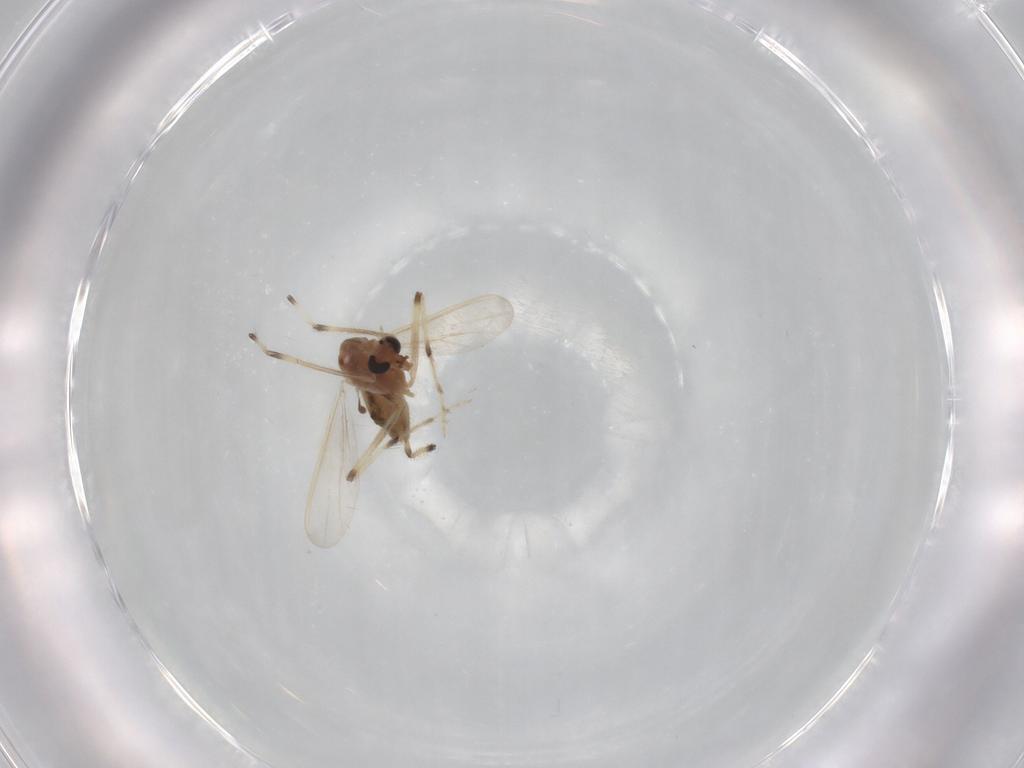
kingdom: Animalia
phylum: Arthropoda
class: Insecta
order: Diptera
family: Chironomidae
